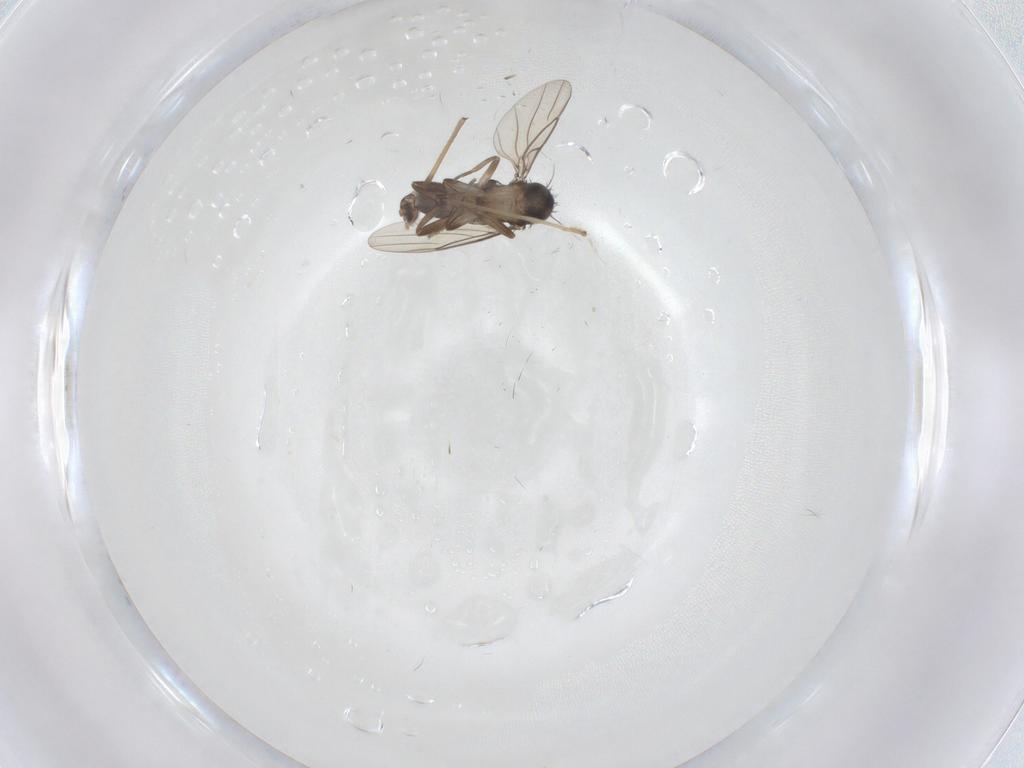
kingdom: Animalia
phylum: Arthropoda
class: Insecta
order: Diptera
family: Phoridae
